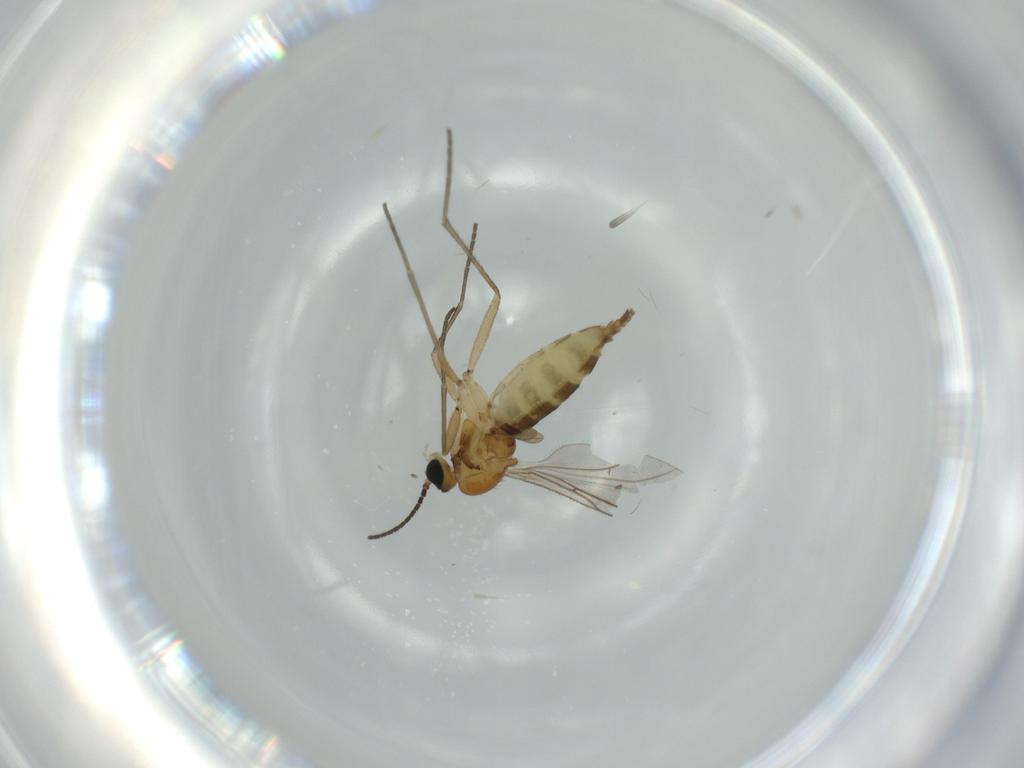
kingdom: Animalia
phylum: Arthropoda
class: Insecta
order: Diptera
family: Sciaridae
